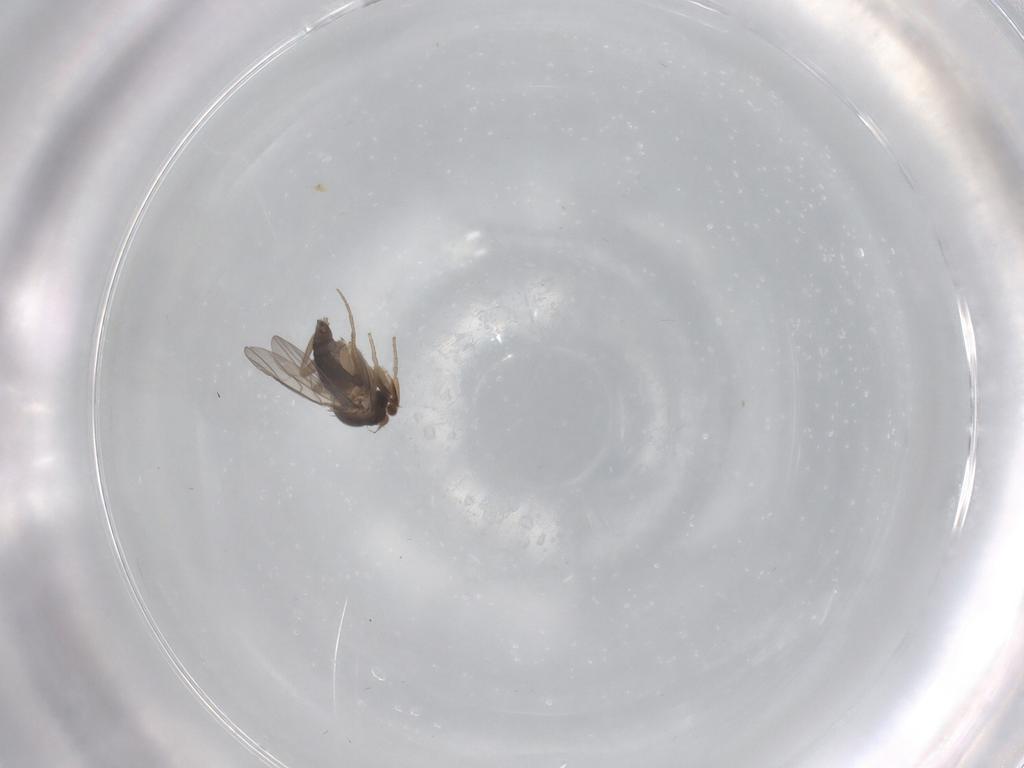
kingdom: Animalia
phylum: Arthropoda
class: Insecta
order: Diptera
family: Phoridae
